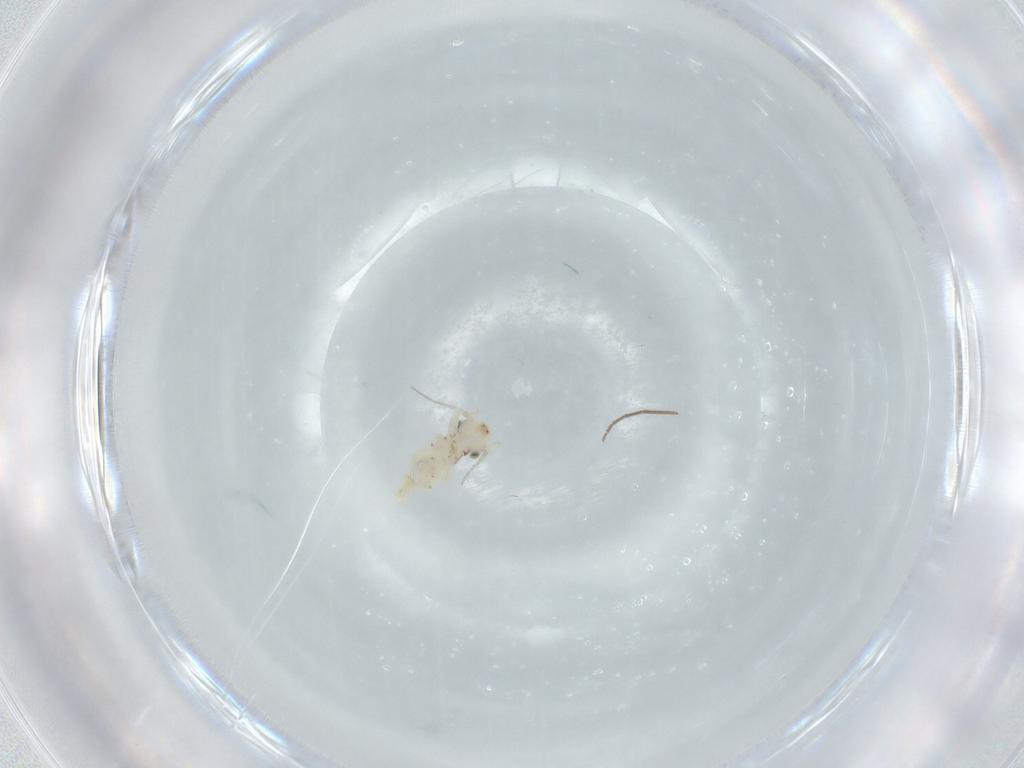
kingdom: Animalia
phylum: Arthropoda
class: Insecta
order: Psocodea
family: Lepidopsocidae
